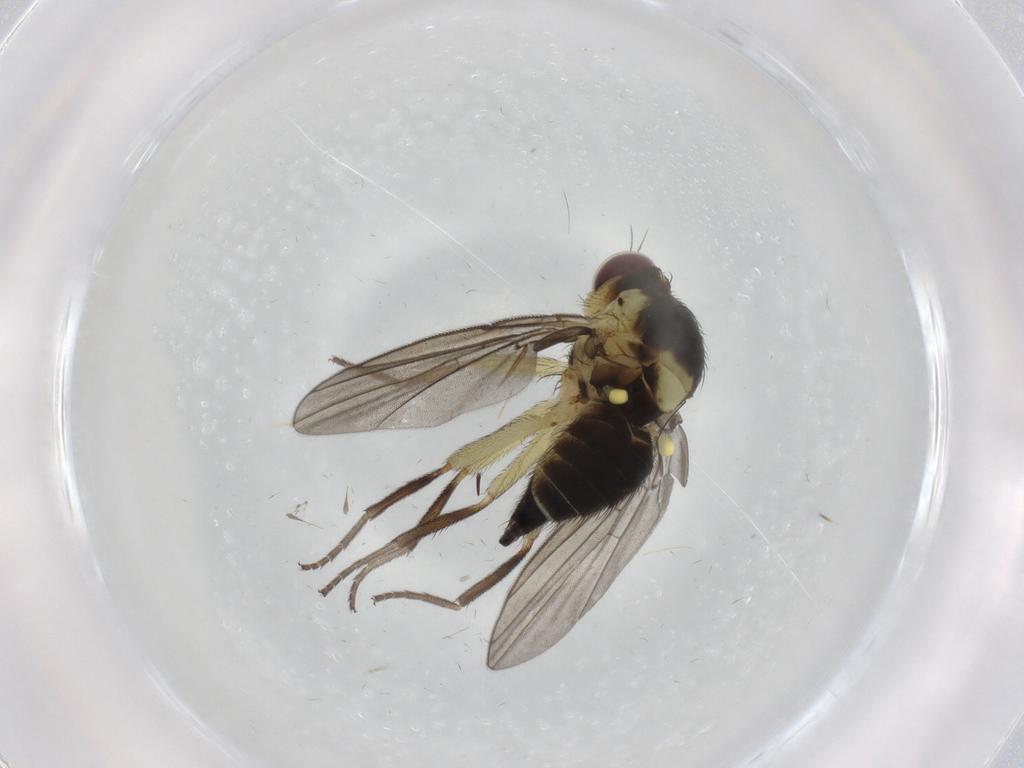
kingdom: Animalia
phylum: Arthropoda
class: Insecta
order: Diptera
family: Agromyzidae
